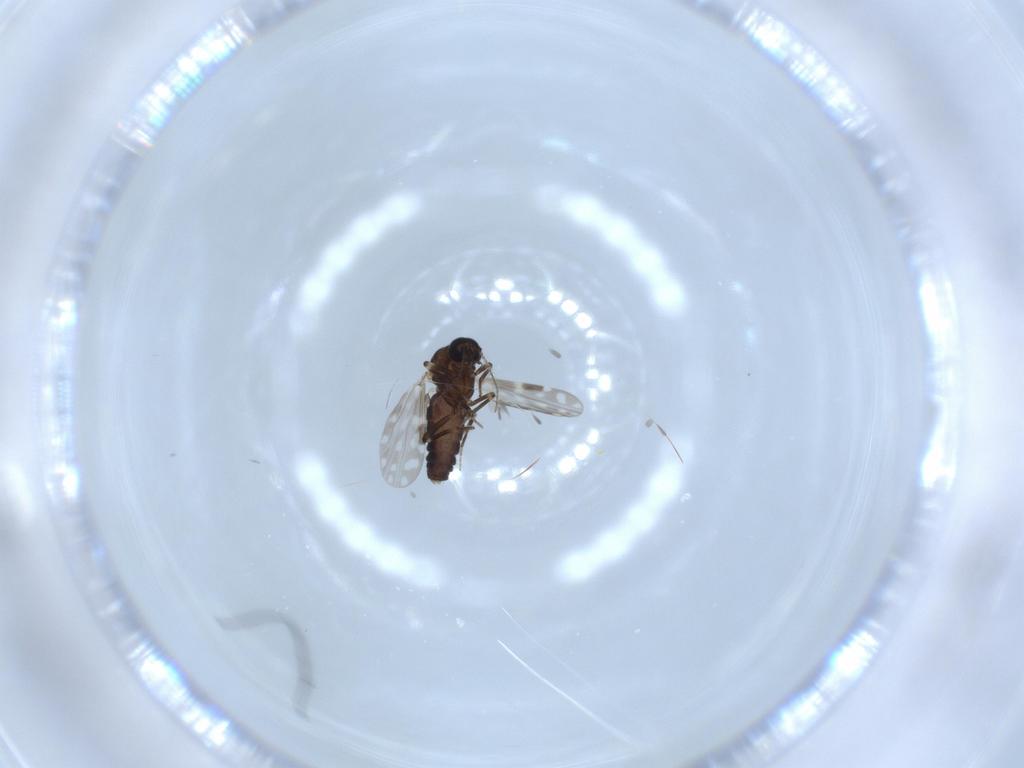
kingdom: Animalia
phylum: Arthropoda
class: Insecta
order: Diptera
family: Ceratopogonidae
